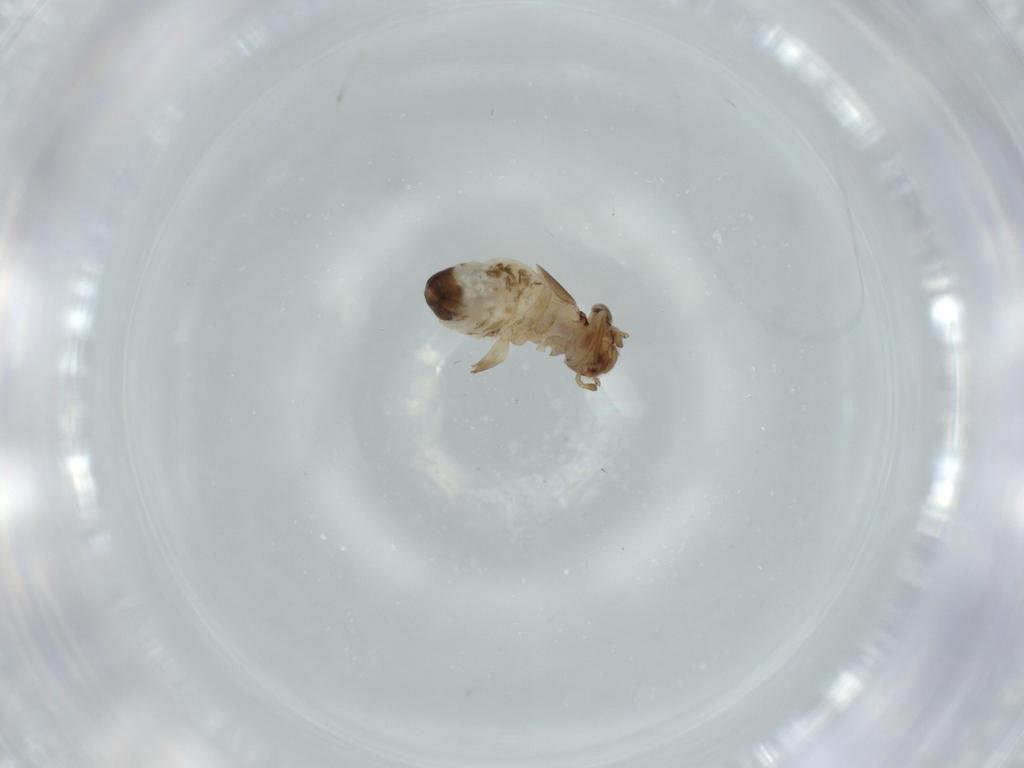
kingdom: Animalia
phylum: Arthropoda
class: Insecta
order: Psocodea
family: Lepidopsocidae
